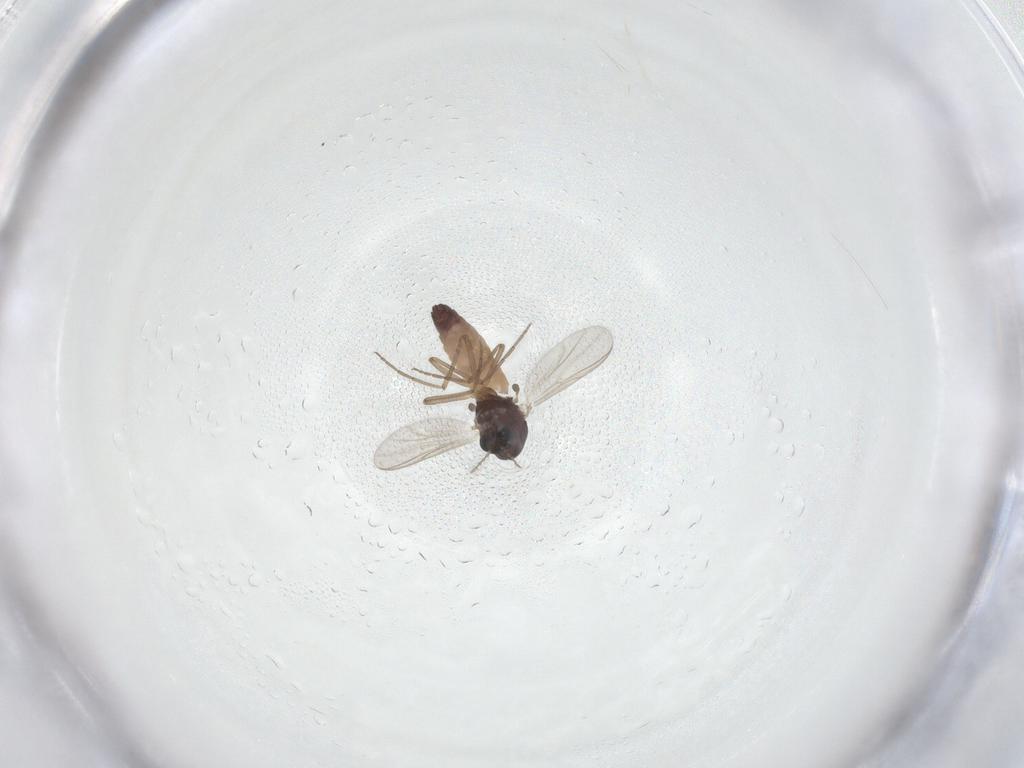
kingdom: Animalia
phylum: Arthropoda
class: Insecta
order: Diptera
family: Chironomidae
